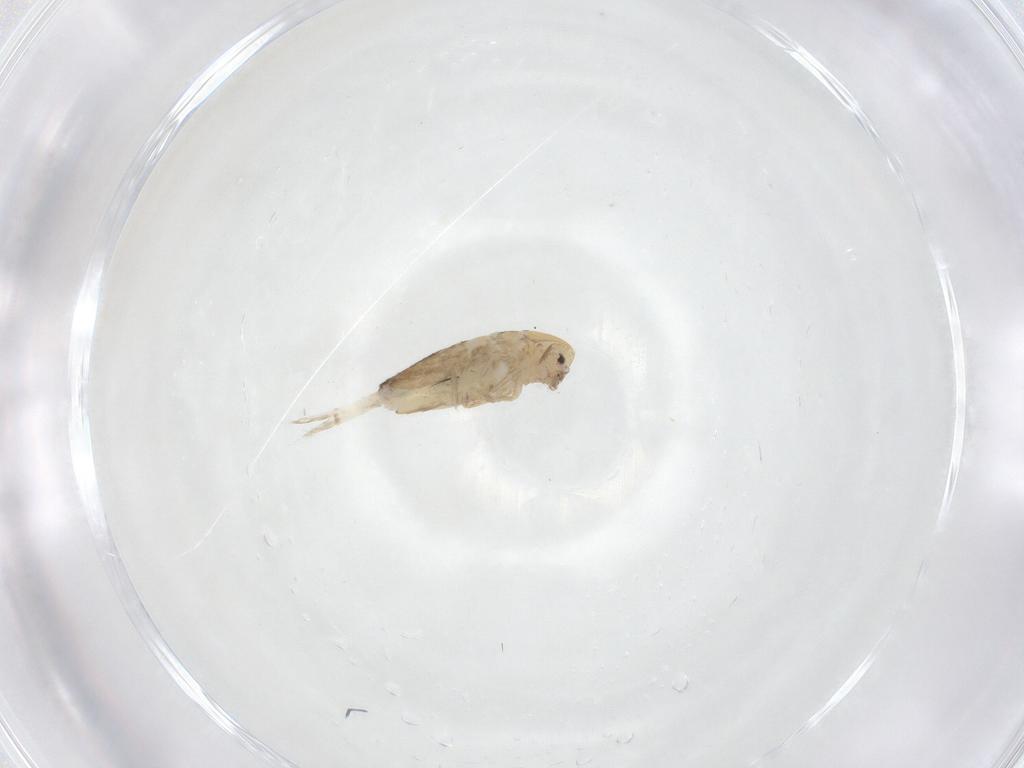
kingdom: Animalia
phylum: Arthropoda
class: Collembola
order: Entomobryomorpha
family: Entomobryidae
